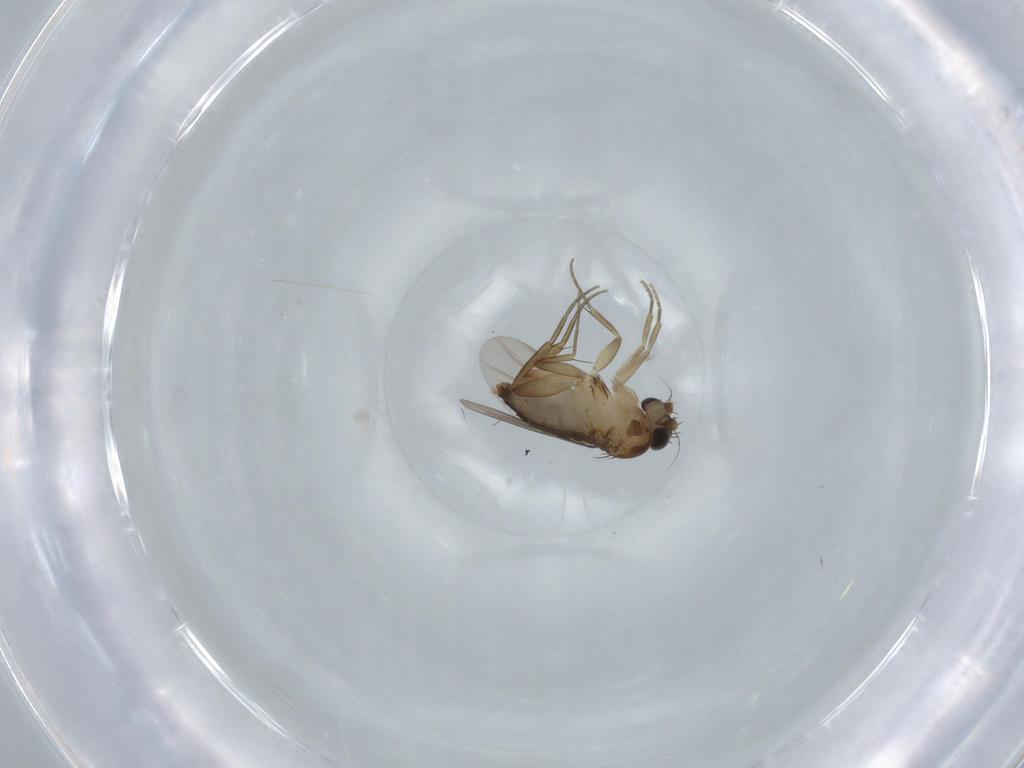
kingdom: Animalia
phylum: Arthropoda
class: Insecta
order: Diptera
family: Phoridae
